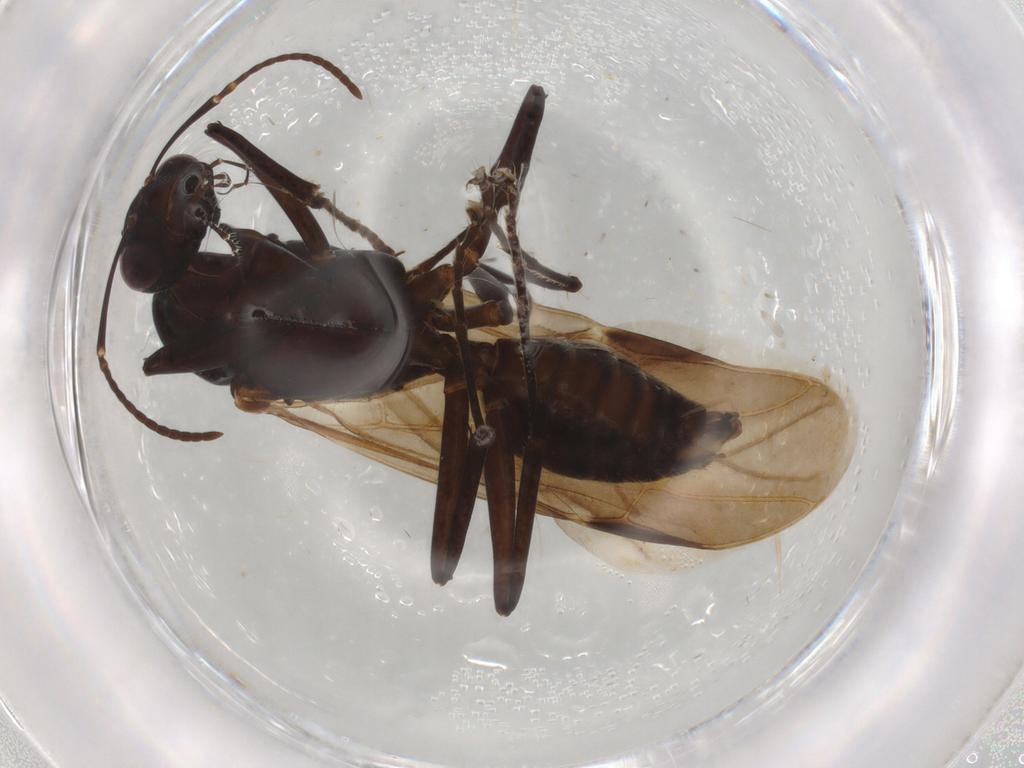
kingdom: Animalia
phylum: Arthropoda
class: Insecta
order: Hymenoptera
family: Formicidae
